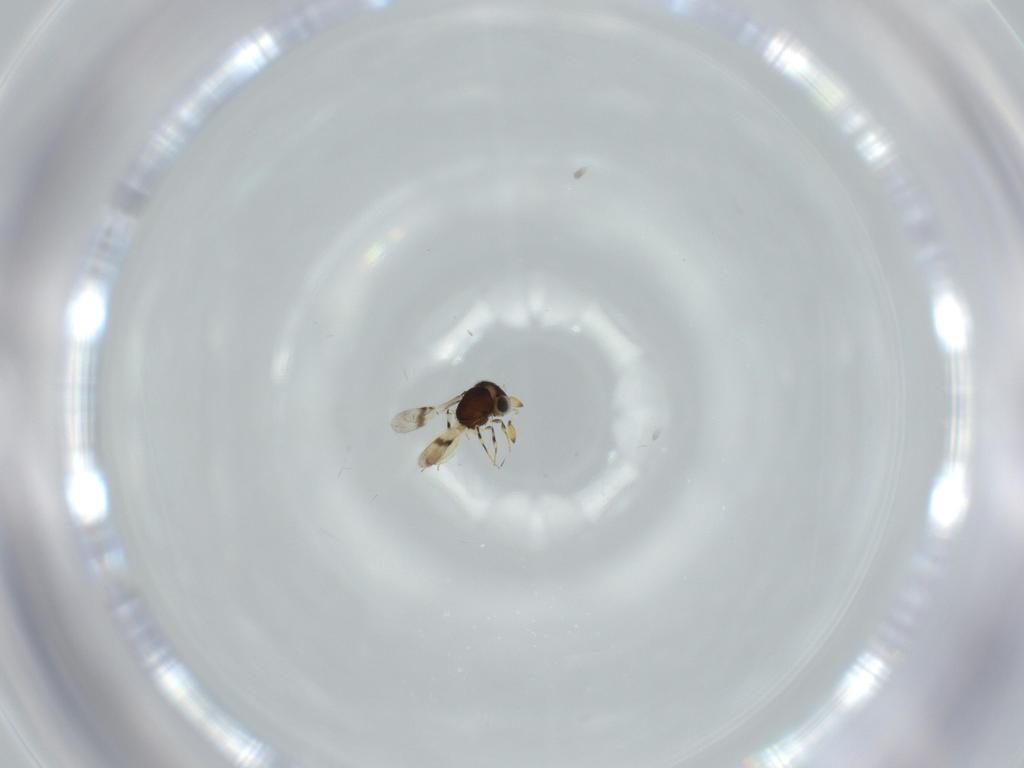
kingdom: Animalia
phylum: Arthropoda
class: Insecta
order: Hymenoptera
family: Scelionidae
